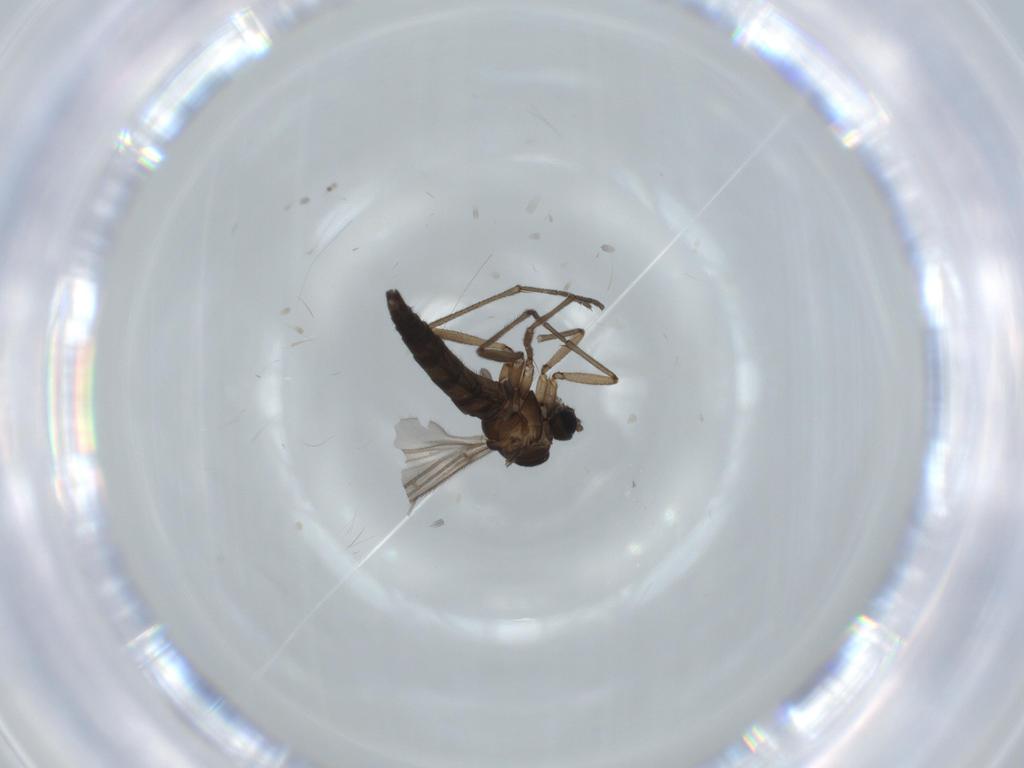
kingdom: Animalia
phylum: Arthropoda
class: Insecta
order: Diptera
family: Sciaridae
